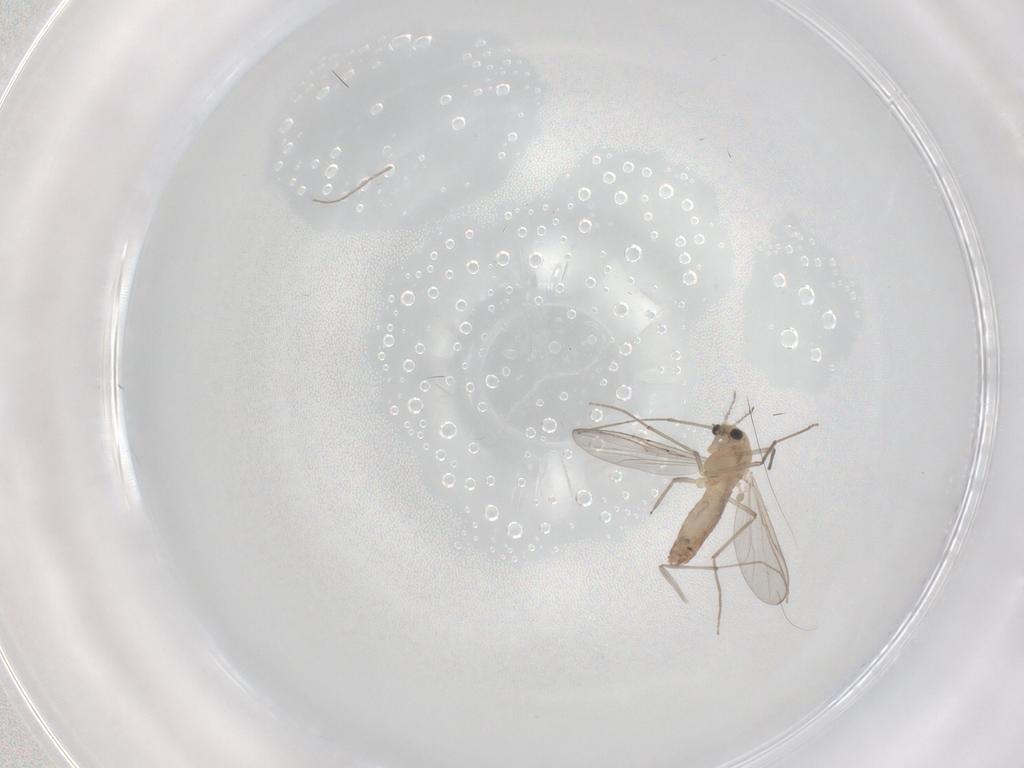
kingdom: Animalia
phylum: Arthropoda
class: Insecta
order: Diptera
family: Chironomidae
